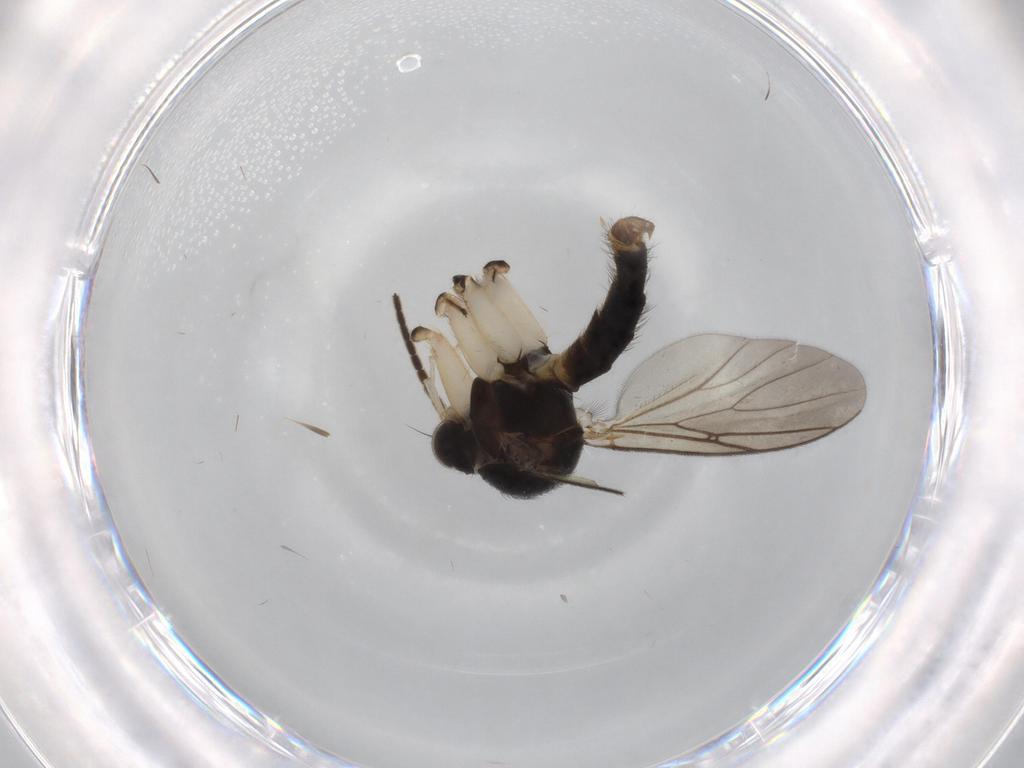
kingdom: Animalia
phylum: Arthropoda
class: Insecta
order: Diptera
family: Cecidomyiidae
